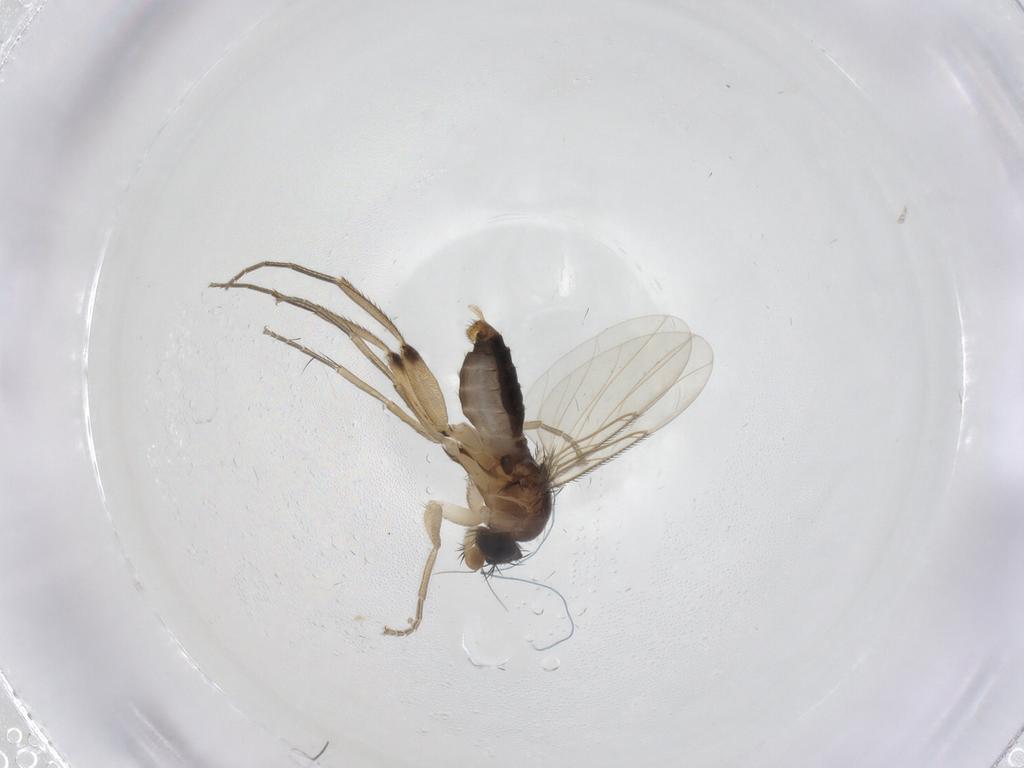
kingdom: Animalia
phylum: Arthropoda
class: Insecta
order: Diptera
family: Phoridae
